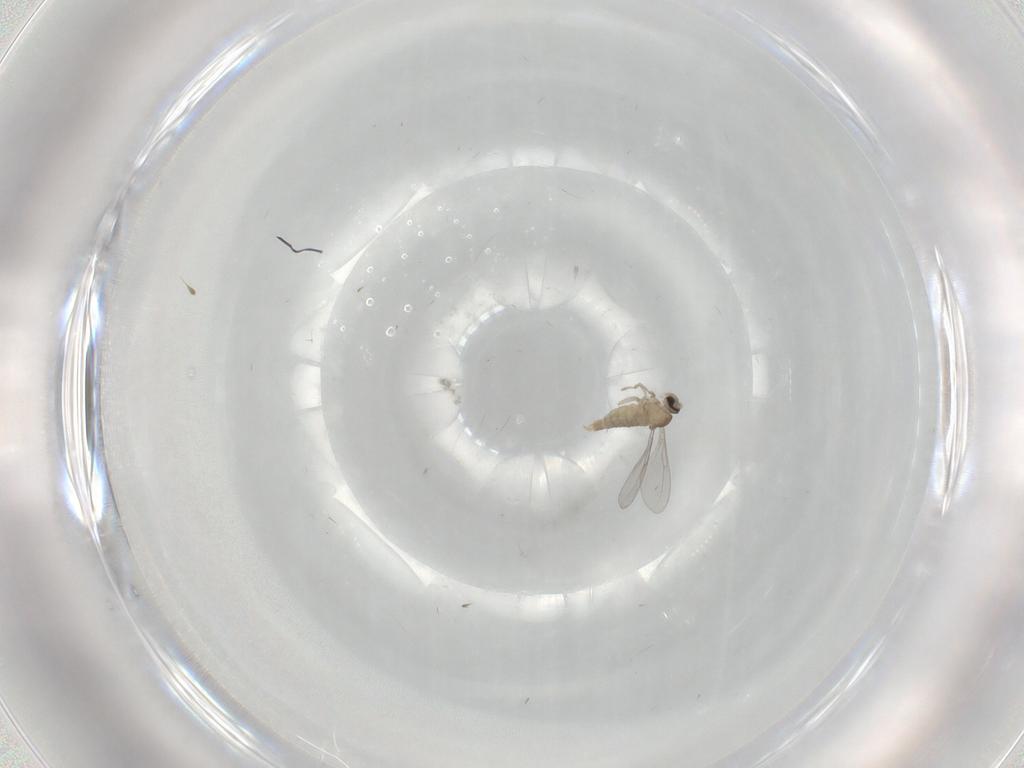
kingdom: Animalia
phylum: Arthropoda
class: Insecta
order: Diptera
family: Cecidomyiidae
